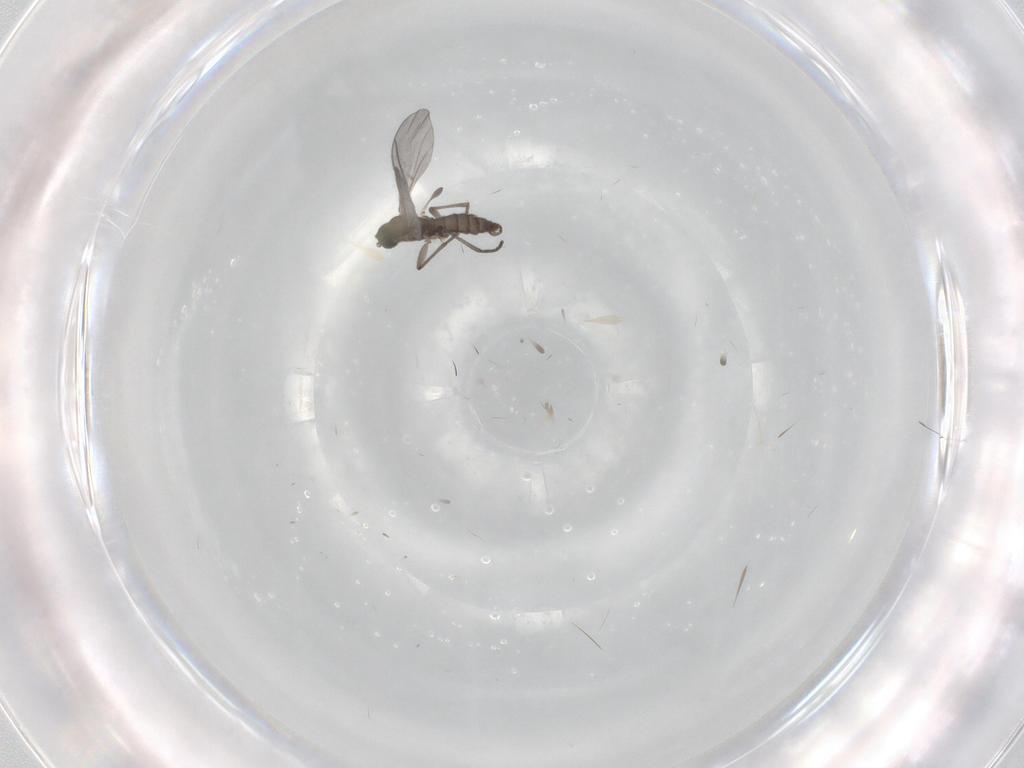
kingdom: Animalia
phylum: Arthropoda
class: Insecta
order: Diptera
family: Sciaridae
